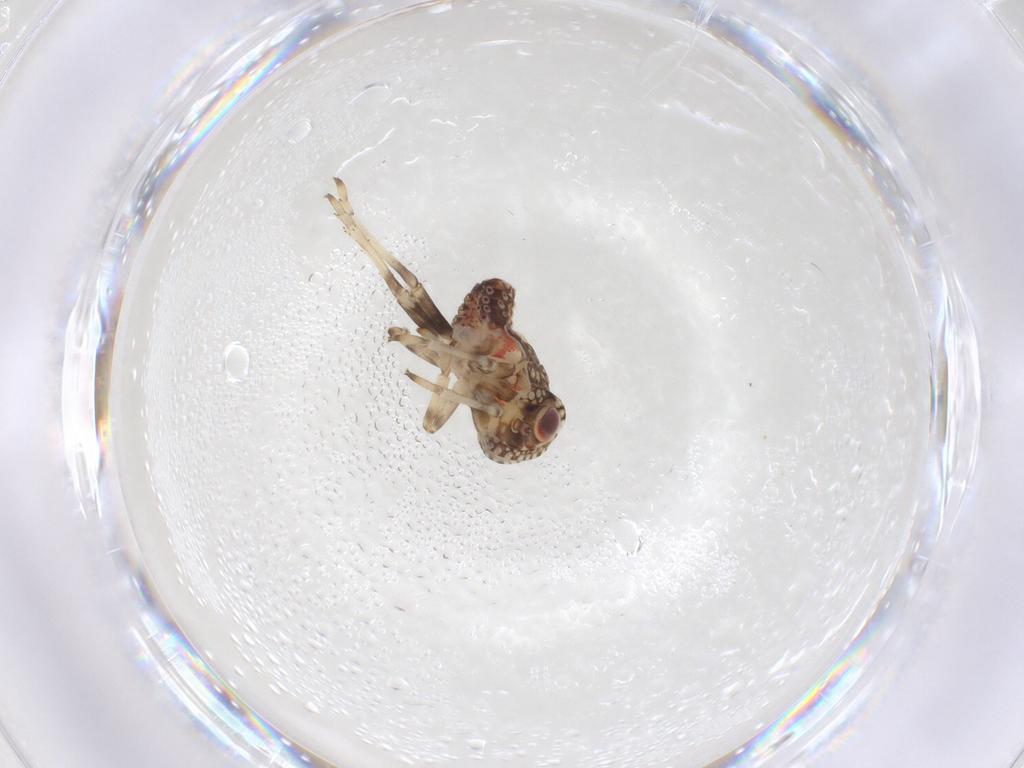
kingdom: Animalia
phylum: Arthropoda
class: Insecta
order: Hemiptera
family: Tropiduchidae
